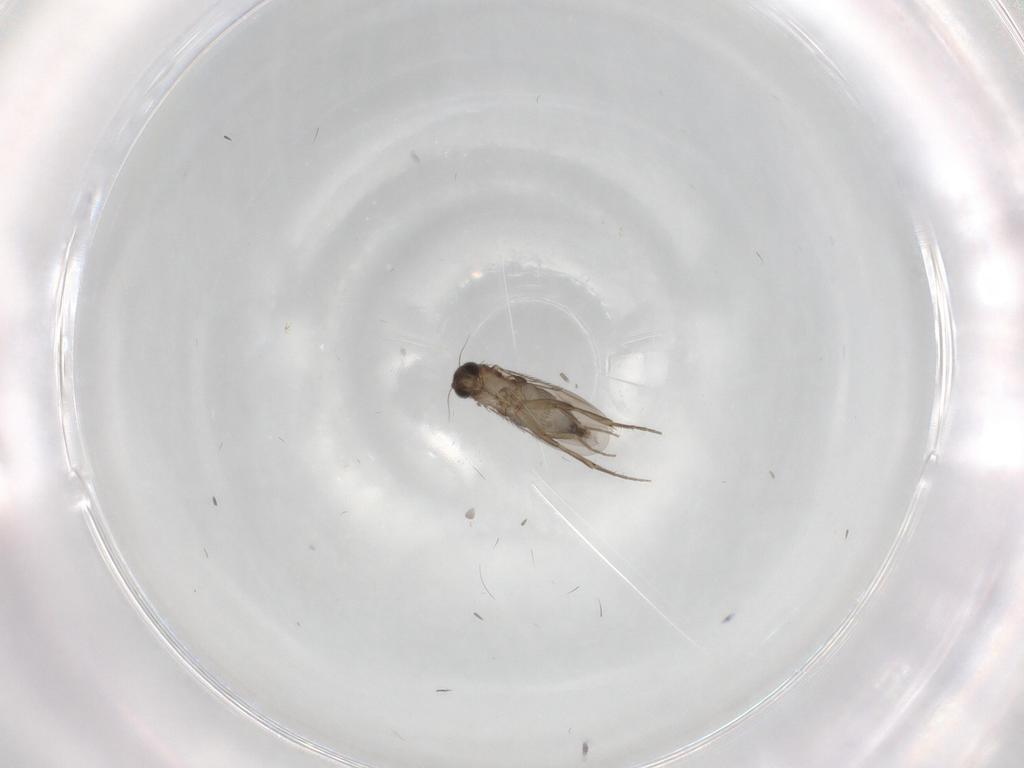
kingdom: Animalia
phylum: Arthropoda
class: Insecta
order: Diptera
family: Phoridae
